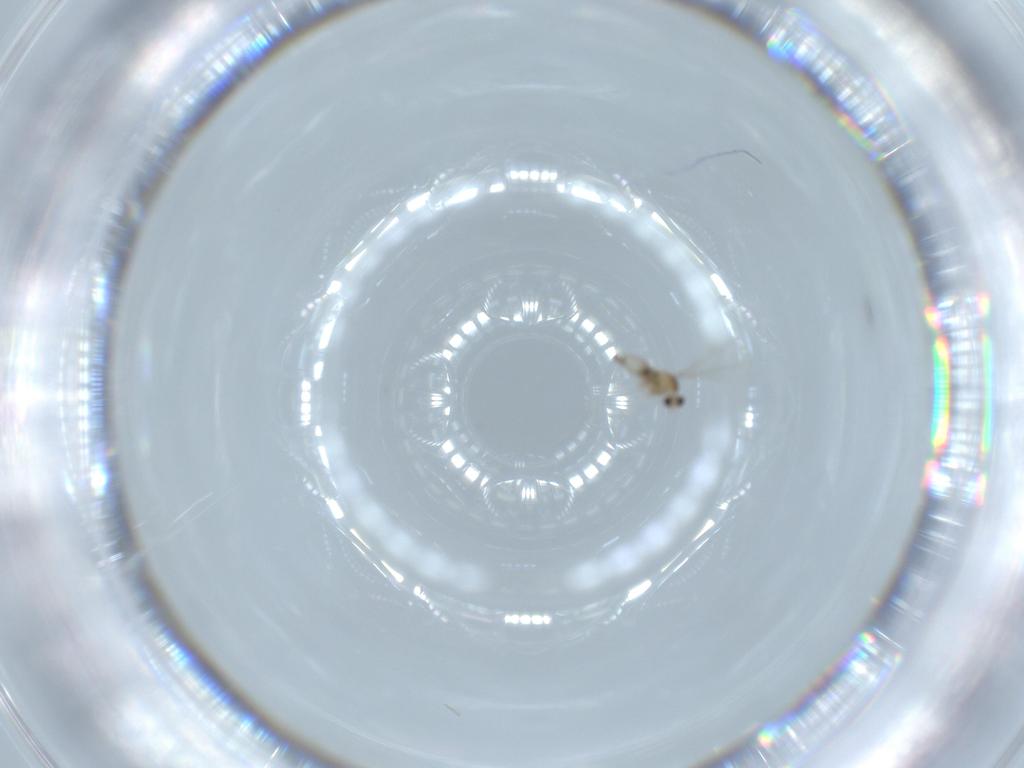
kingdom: Animalia
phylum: Arthropoda
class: Insecta
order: Diptera
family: Cecidomyiidae
